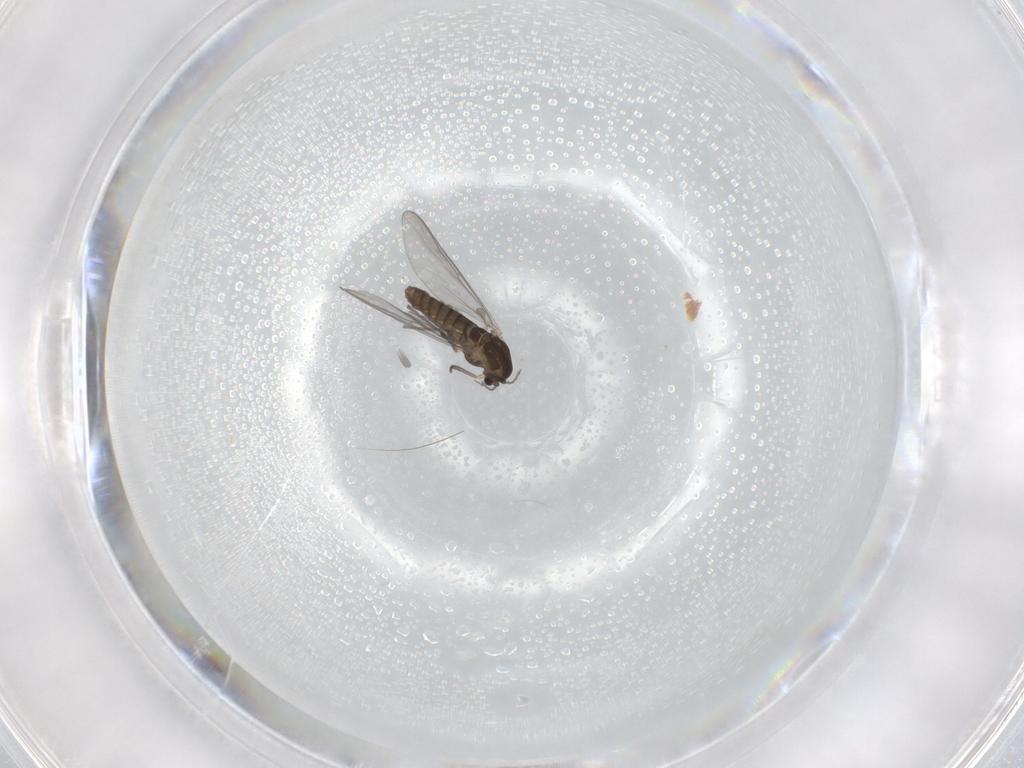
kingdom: Animalia
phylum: Arthropoda
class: Insecta
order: Diptera
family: Chironomidae
